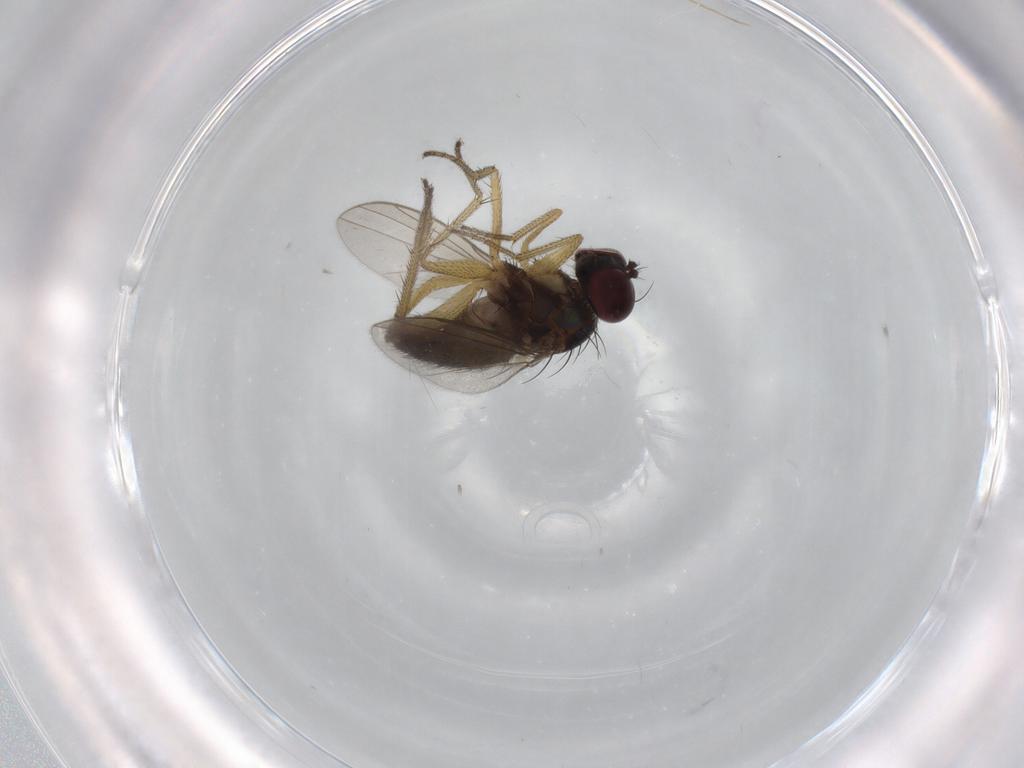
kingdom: Animalia
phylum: Arthropoda
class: Insecta
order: Diptera
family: Dolichopodidae
